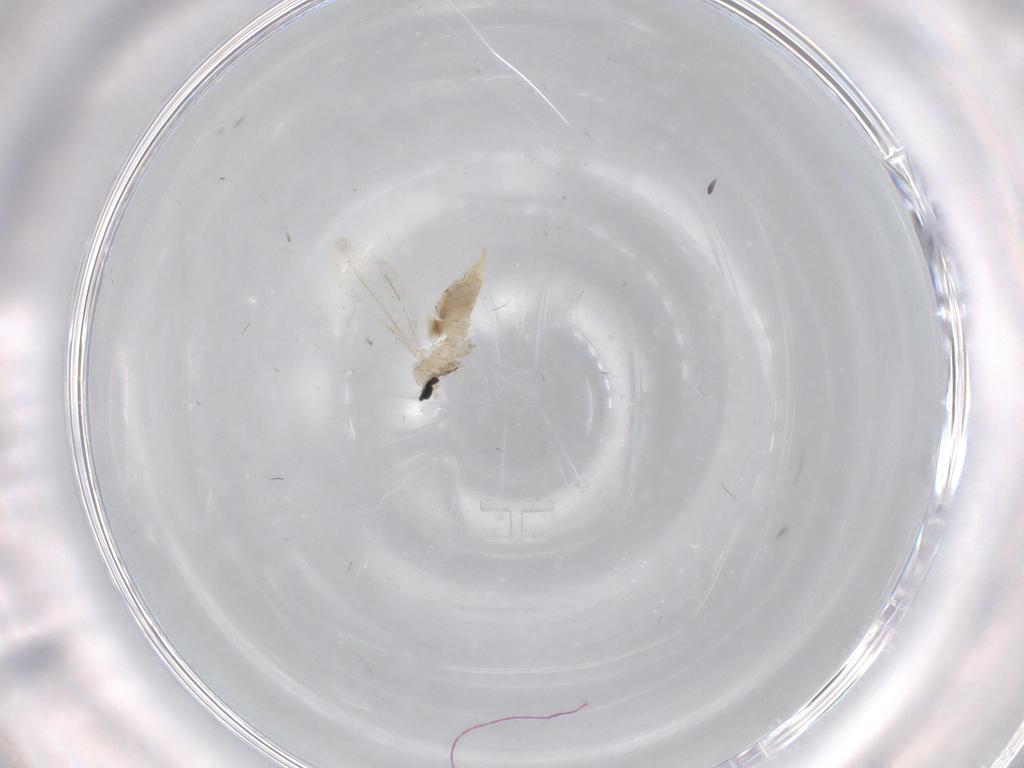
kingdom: Animalia
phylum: Arthropoda
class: Insecta
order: Diptera
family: Cecidomyiidae
